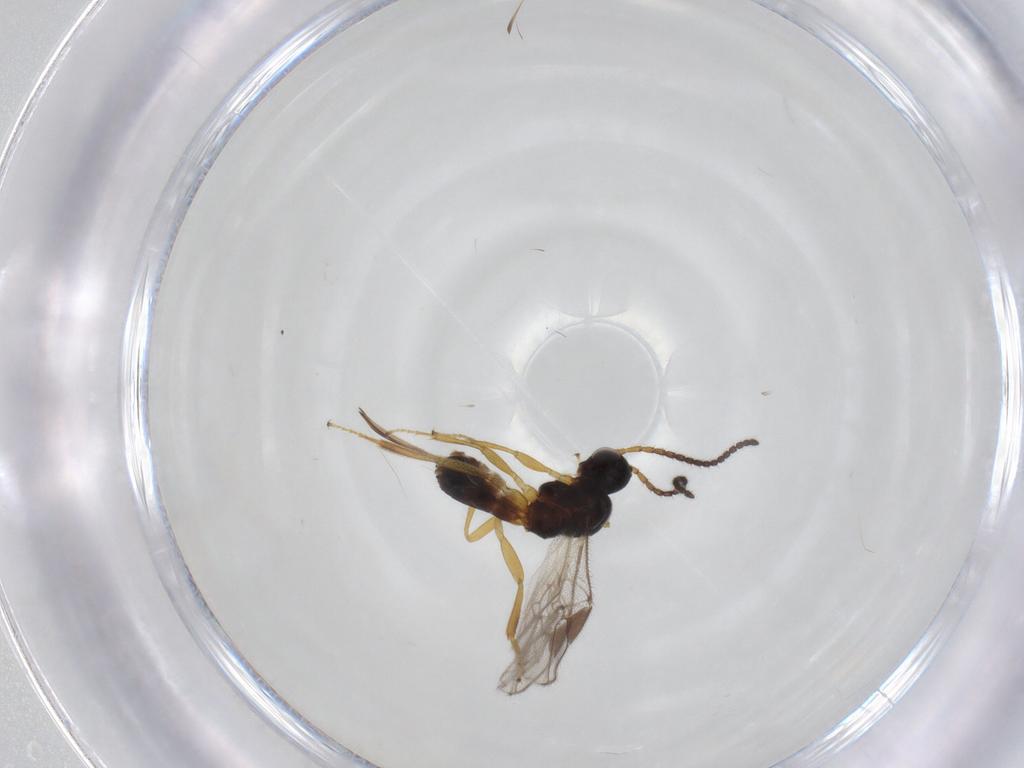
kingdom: Animalia
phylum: Arthropoda
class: Insecta
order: Hymenoptera
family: Braconidae
